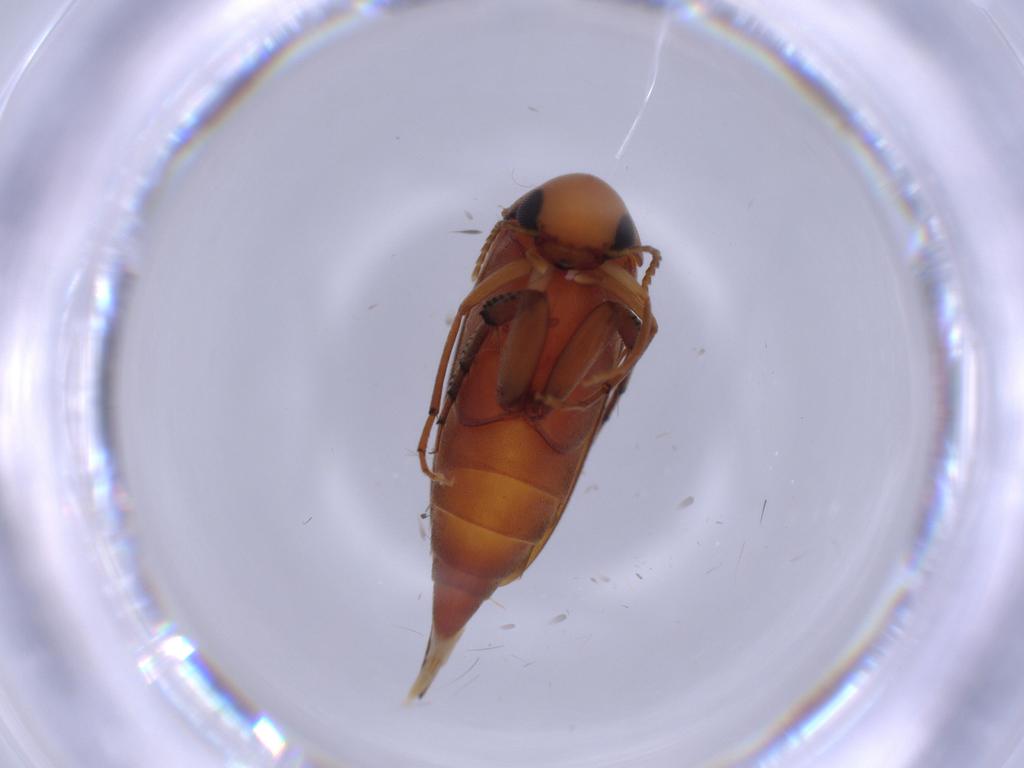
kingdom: Animalia
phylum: Arthropoda
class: Insecta
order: Coleoptera
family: Mordellidae
